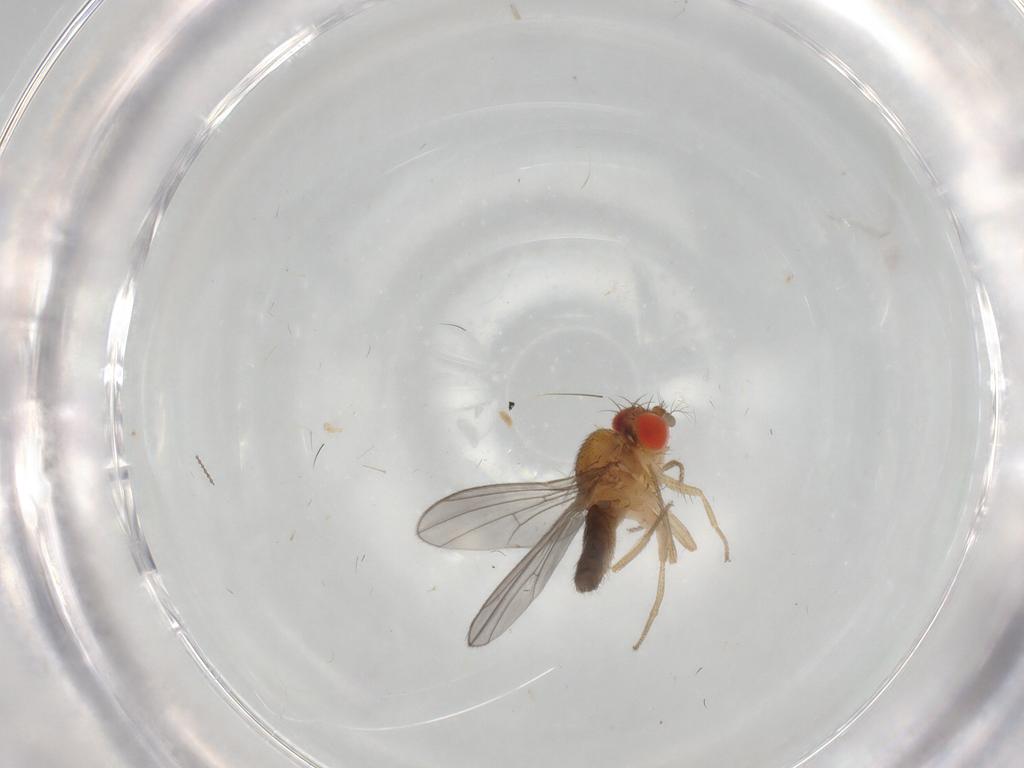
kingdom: Animalia
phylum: Arthropoda
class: Insecta
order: Diptera
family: Drosophilidae
